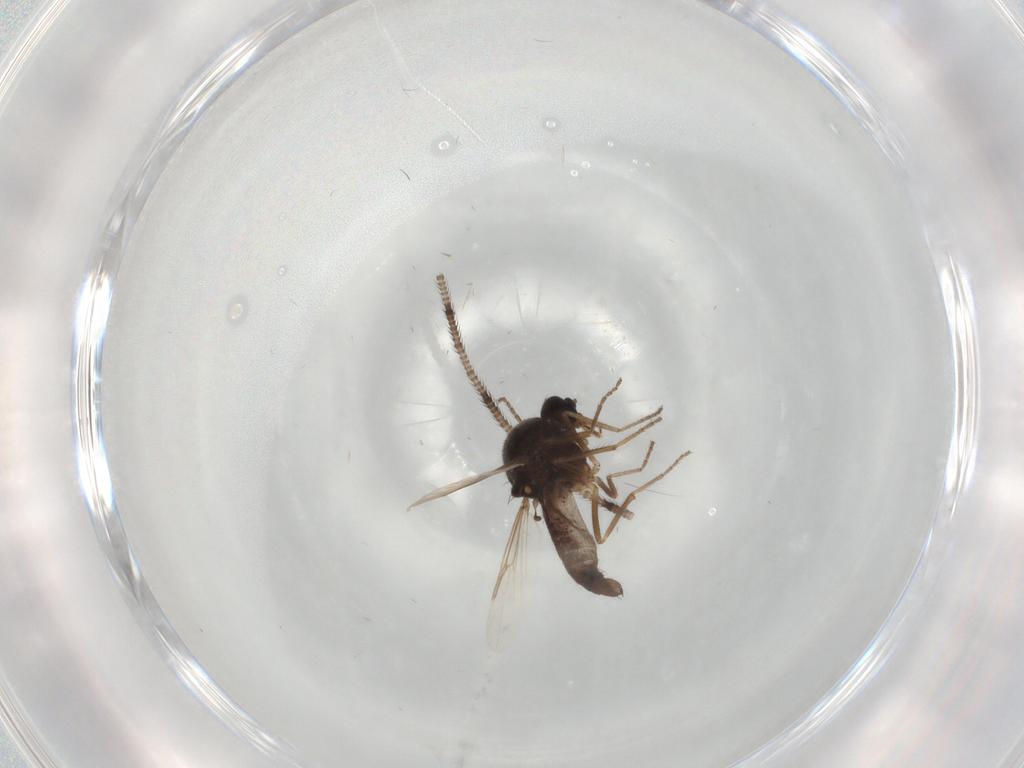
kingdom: Animalia
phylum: Arthropoda
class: Insecta
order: Diptera
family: Ceratopogonidae
